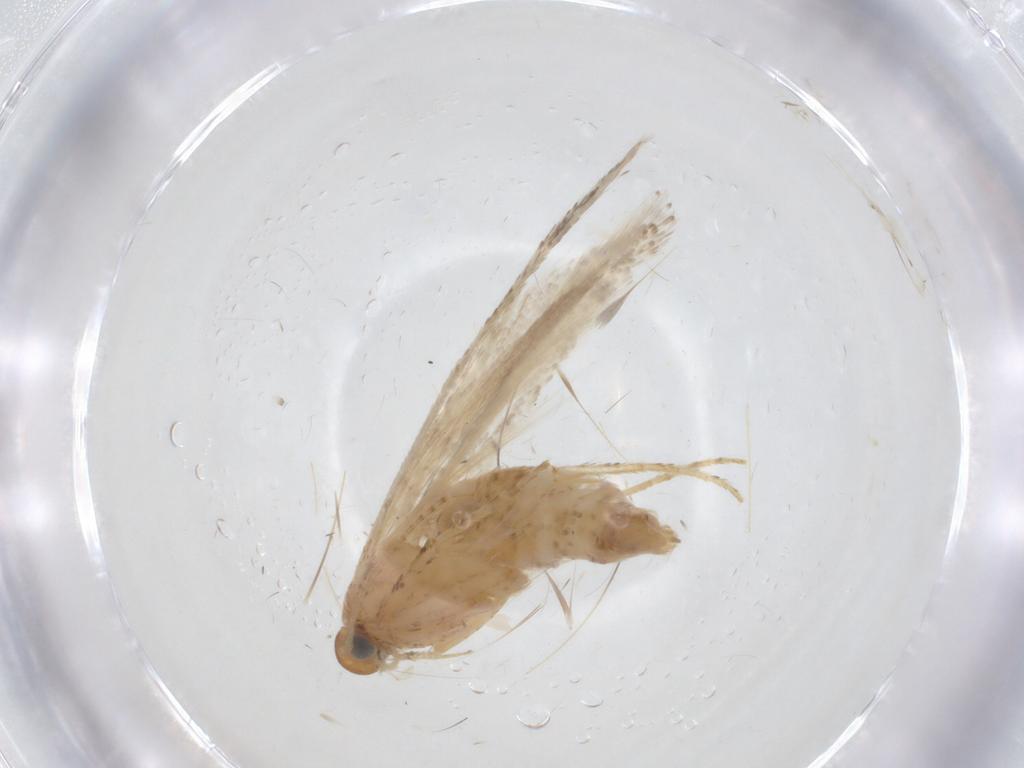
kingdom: Animalia
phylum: Arthropoda
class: Insecta
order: Lepidoptera
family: Gelechiidae
